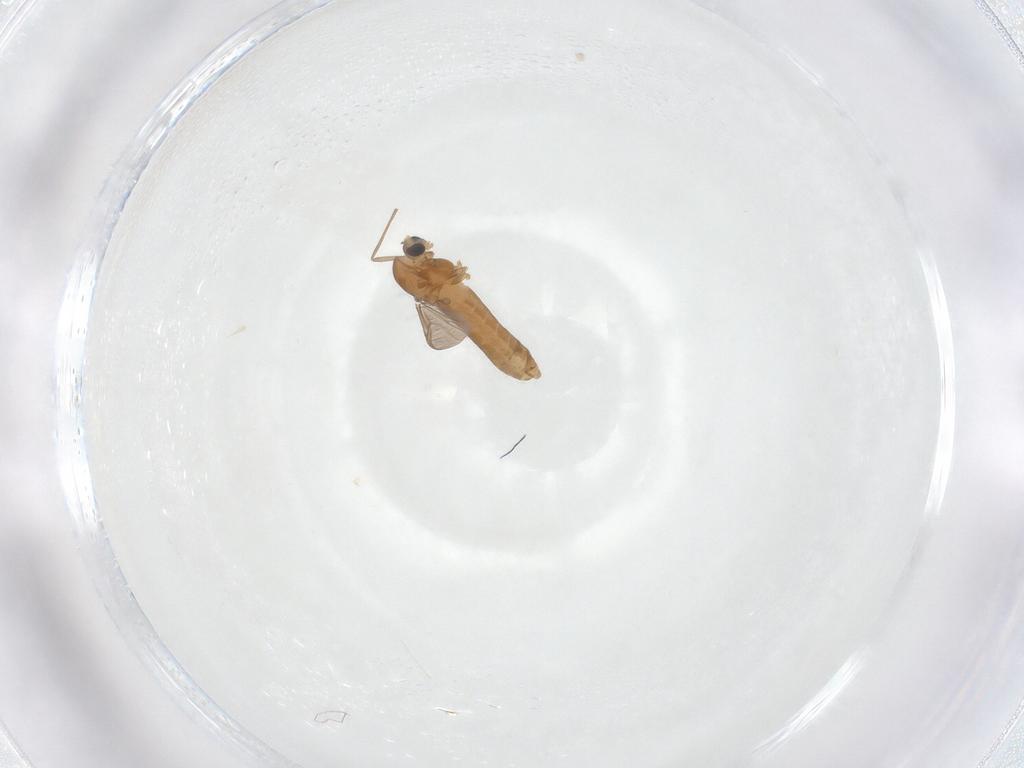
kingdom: Animalia
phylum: Arthropoda
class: Insecta
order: Diptera
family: Chironomidae
